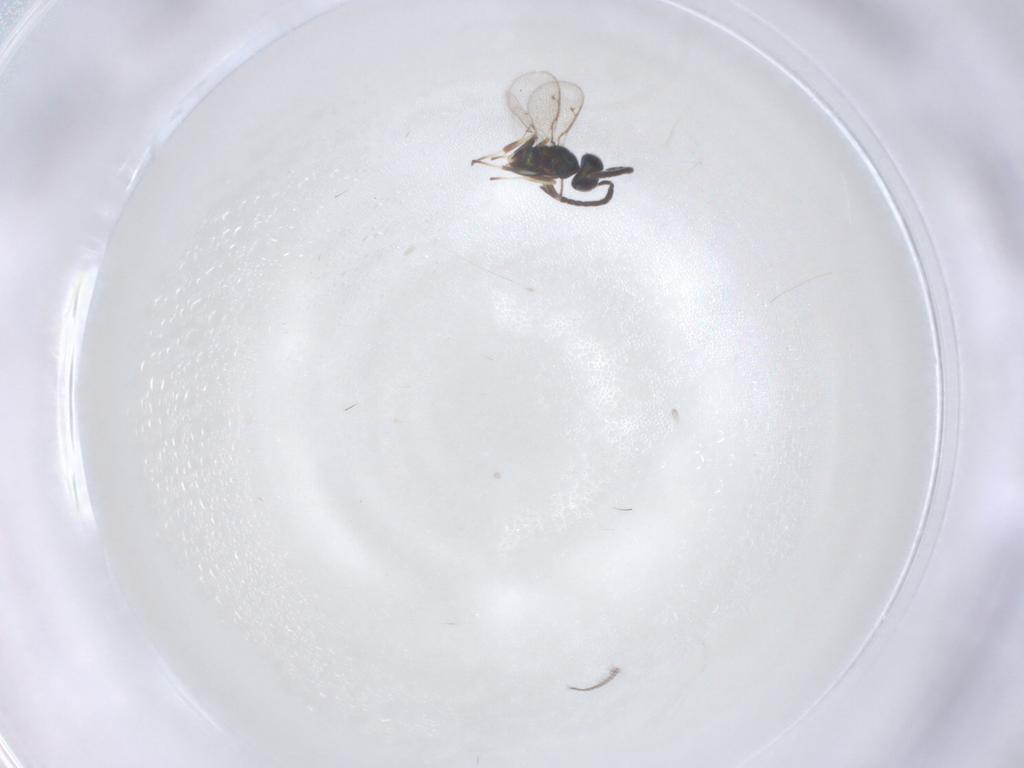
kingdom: Animalia
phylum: Arthropoda
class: Insecta
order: Hymenoptera
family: Eupelmidae
